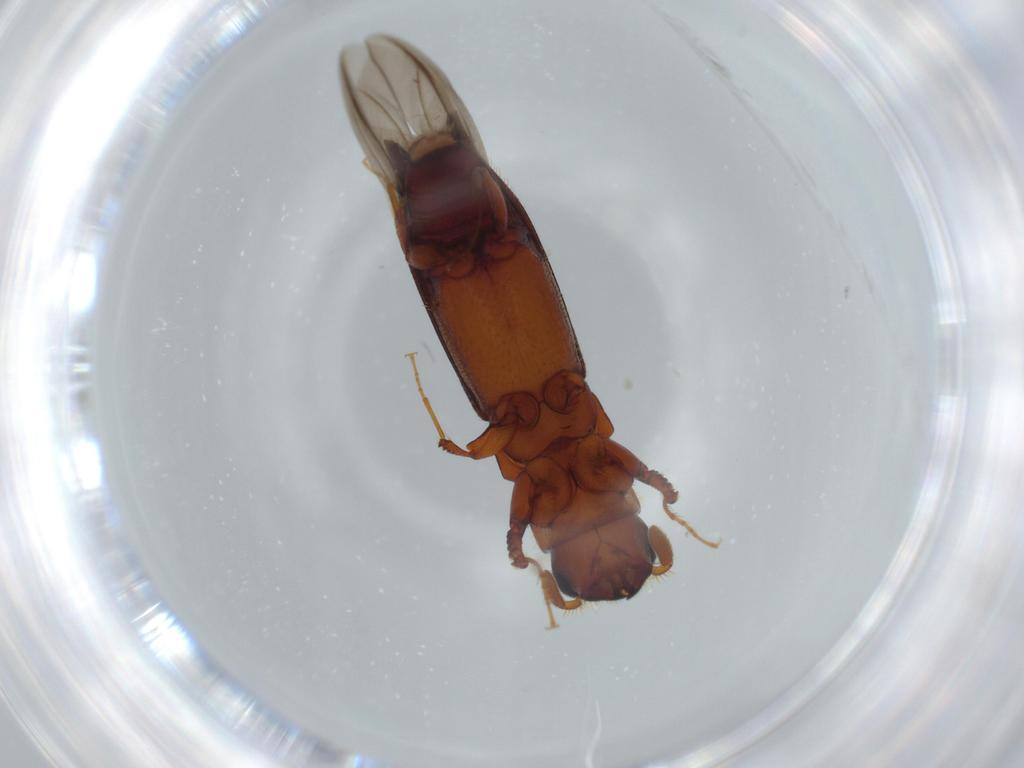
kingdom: Animalia
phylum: Arthropoda
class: Insecta
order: Coleoptera
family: Curculionidae
